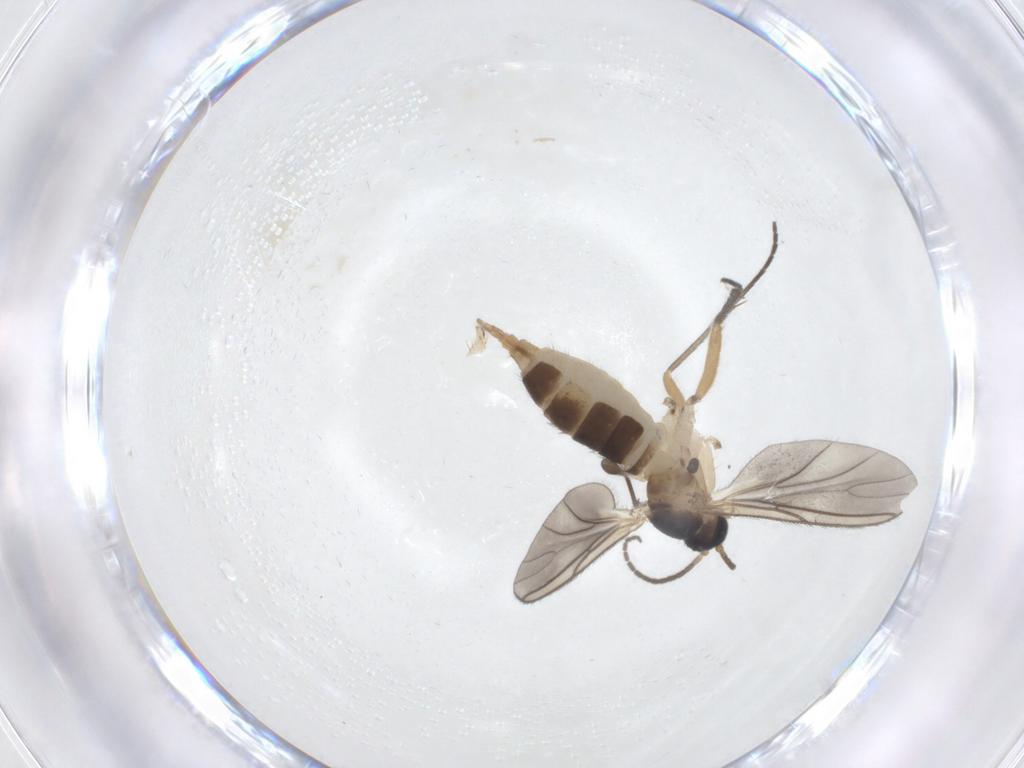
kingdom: Animalia
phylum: Arthropoda
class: Insecta
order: Diptera
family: Sciaridae
